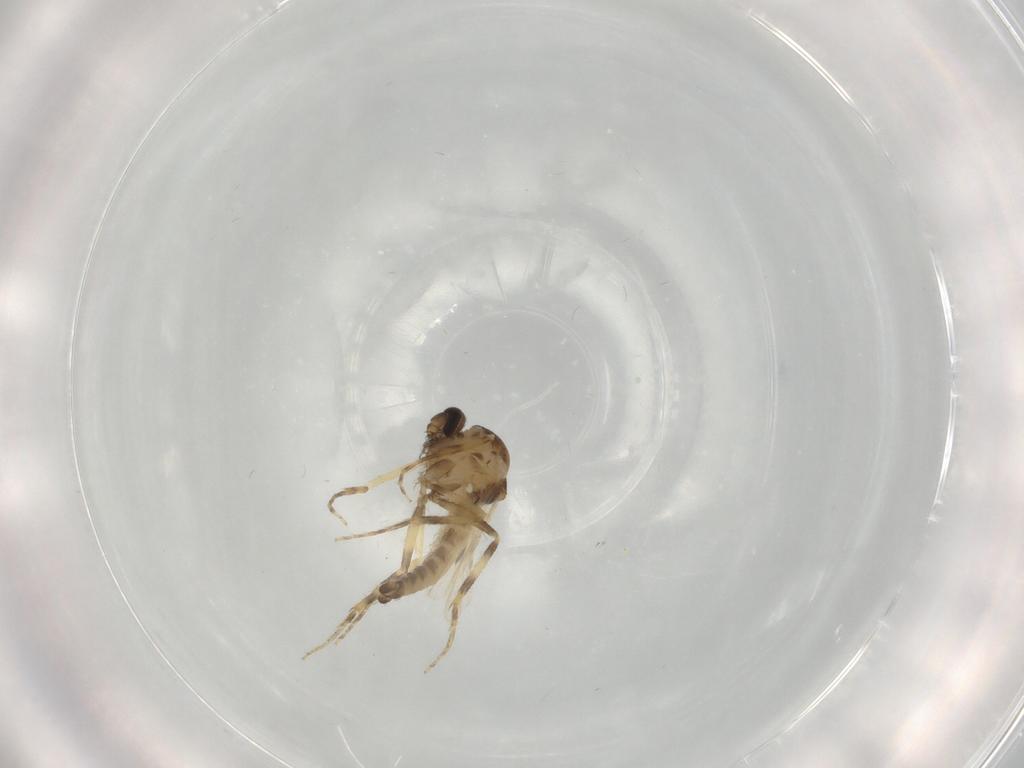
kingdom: Animalia
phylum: Arthropoda
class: Insecta
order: Diptera
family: Ceratopogonidae
